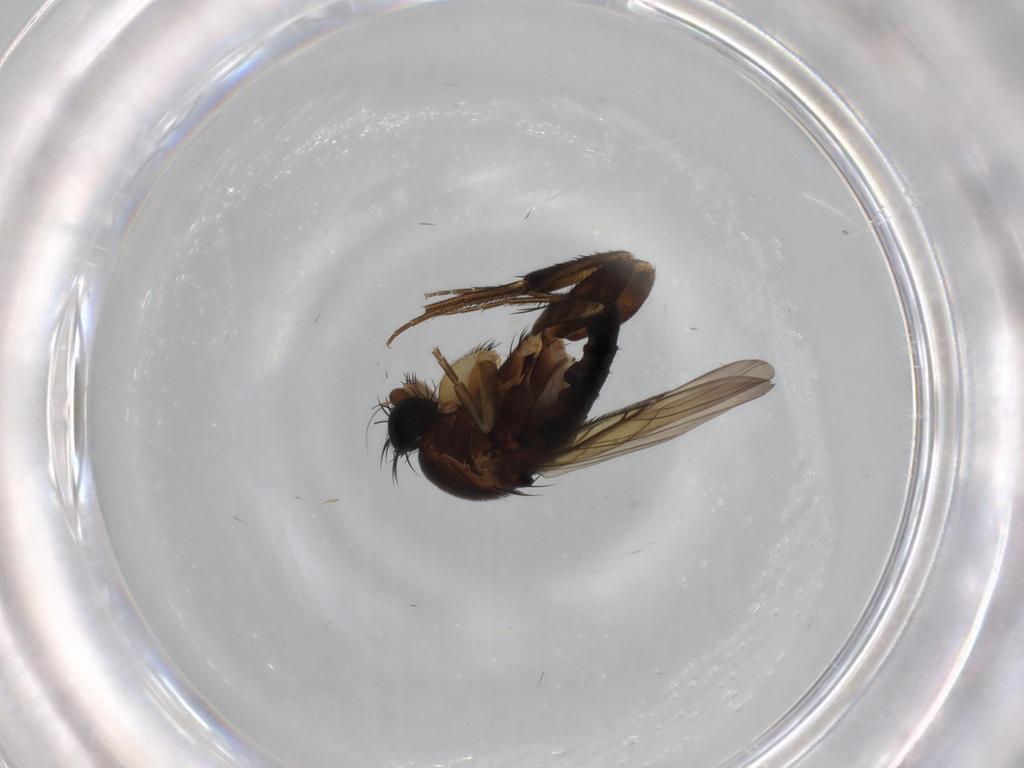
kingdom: Animalia
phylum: Arthropoda
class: Insecta
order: Diptera
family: Phoridae
